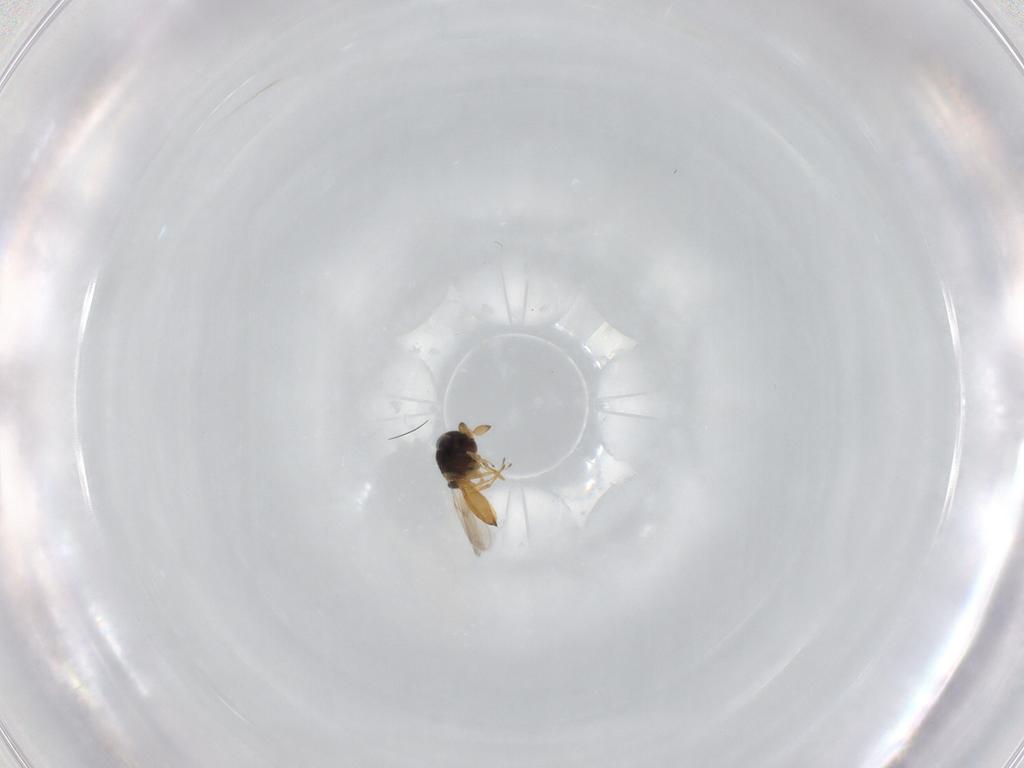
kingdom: Animalia
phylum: Arthropoda
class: Insecta
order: Hymenoptera
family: Scelionidae
